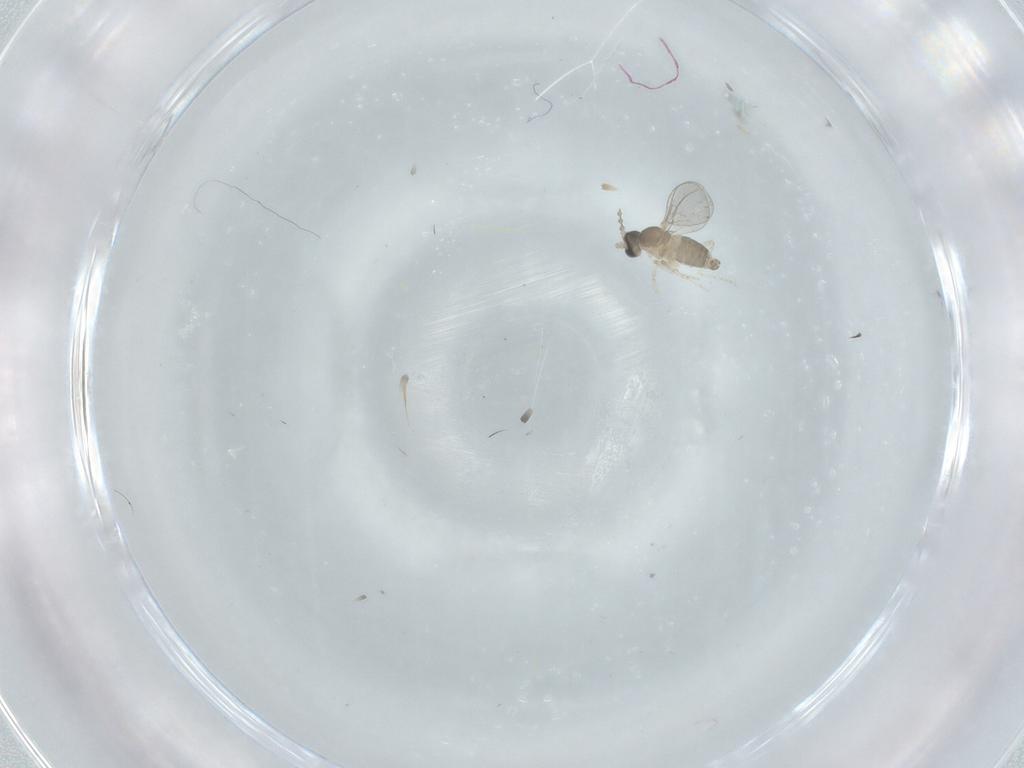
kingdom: Animalia
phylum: Arthropoda
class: Insecta
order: Diptera
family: Cecidomyiidae
